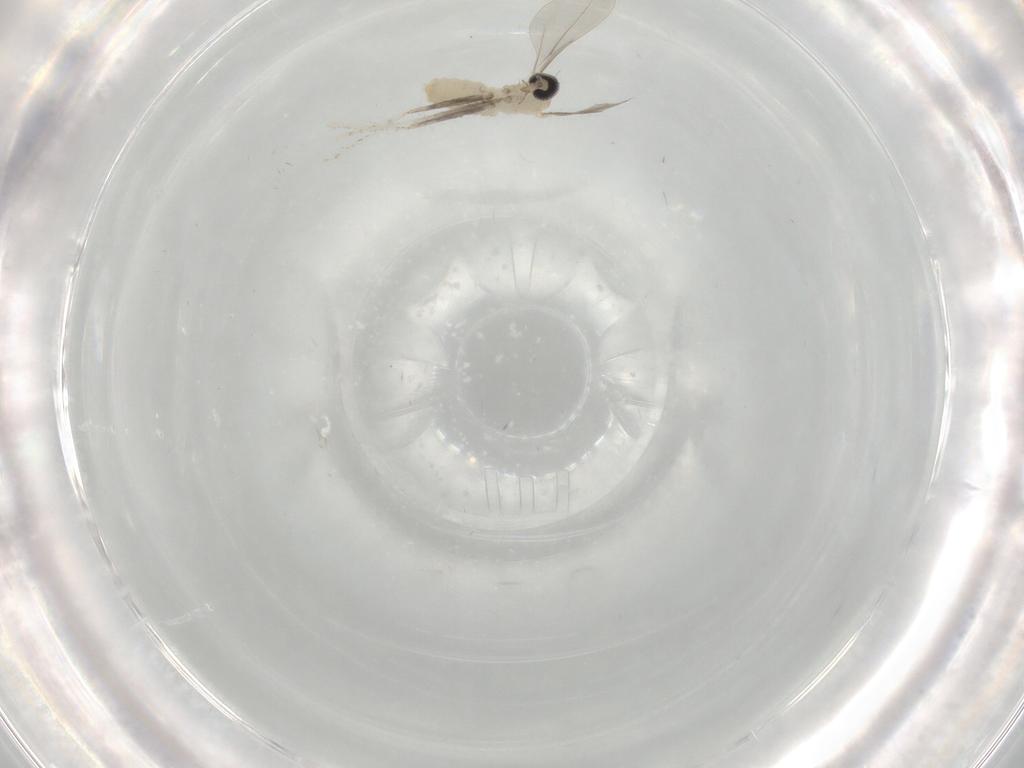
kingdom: Animalia
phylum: Arthropoda
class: Insecta
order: Diptera
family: Cecidomyiidae
